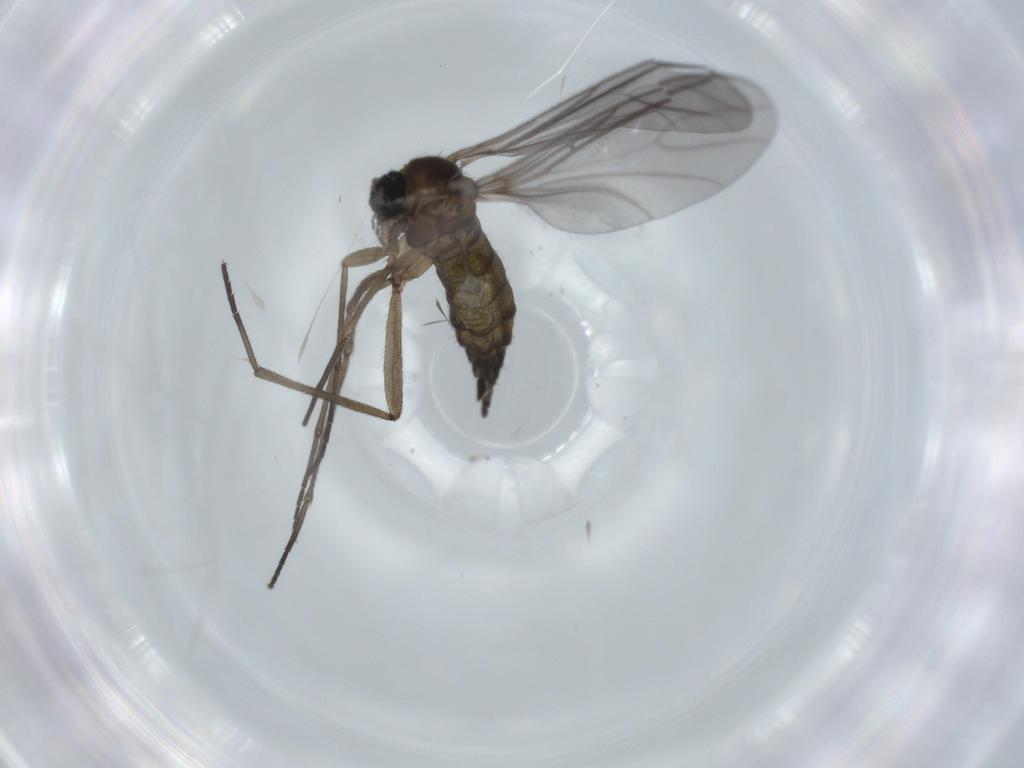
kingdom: Animalia
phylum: Arthropoda
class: Insecta
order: Diptera
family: Sciaridae
